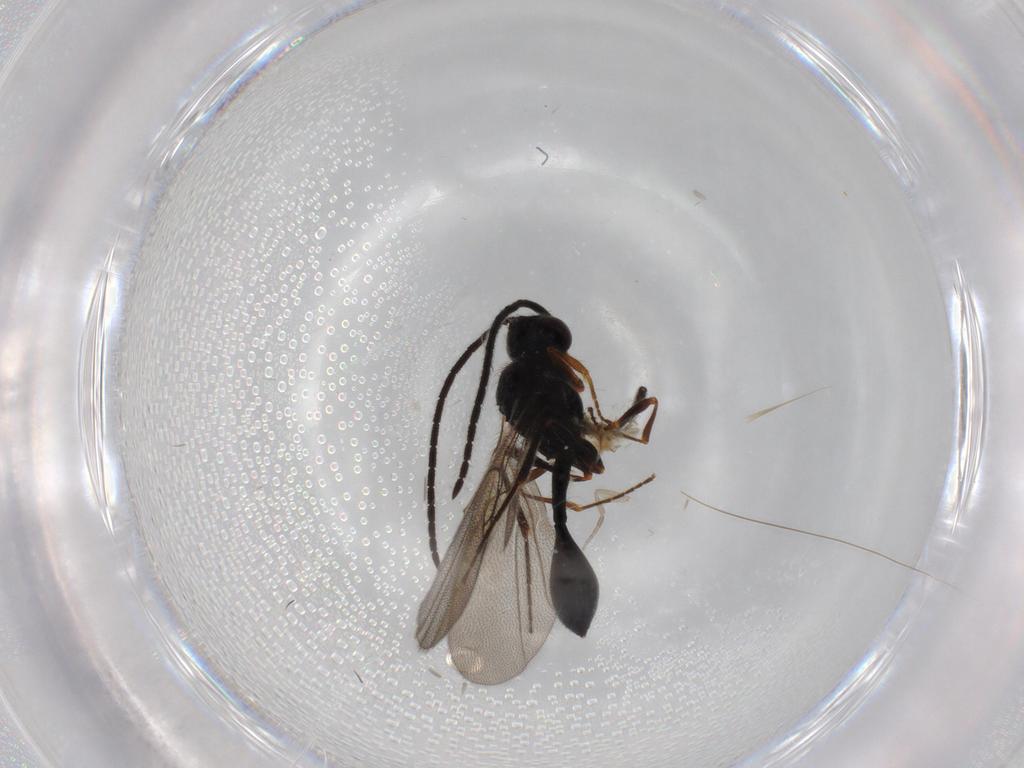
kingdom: Animalia
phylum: Arthropoda
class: Insecta
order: Hymenoptera
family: Diapriidae
